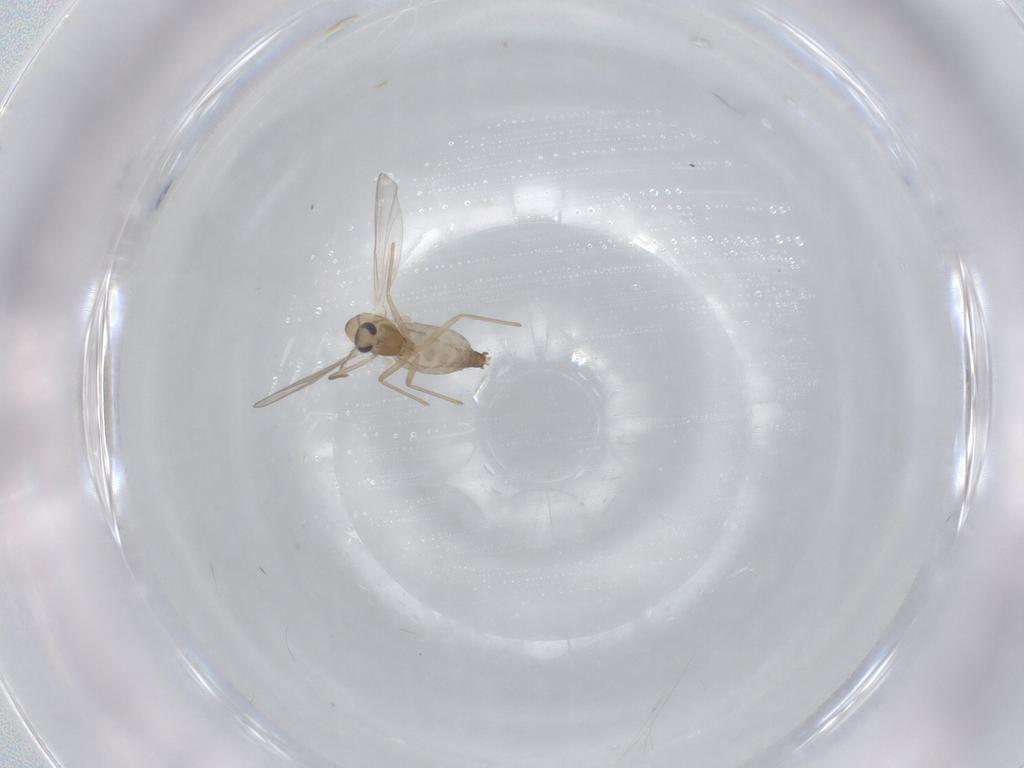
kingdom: Animalia
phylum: Arthropoda
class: Insecta
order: Diptera
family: Chironomidae
